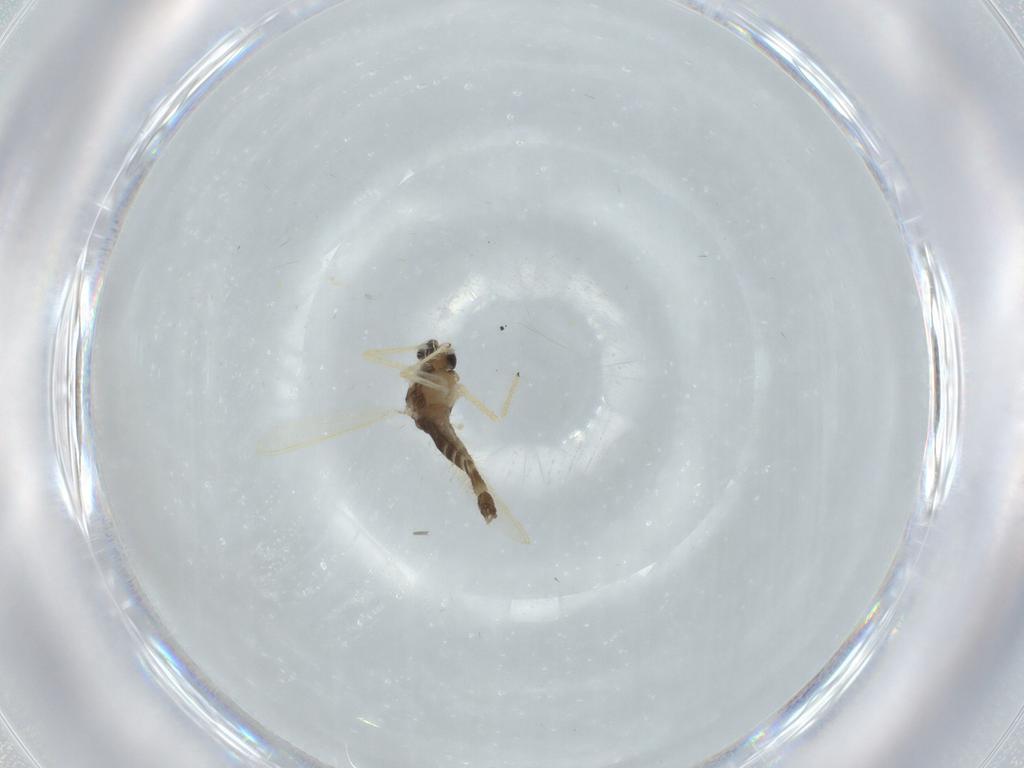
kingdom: Animalia
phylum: Arthropoda
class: Insecta
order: Diptera
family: Chironomidae
